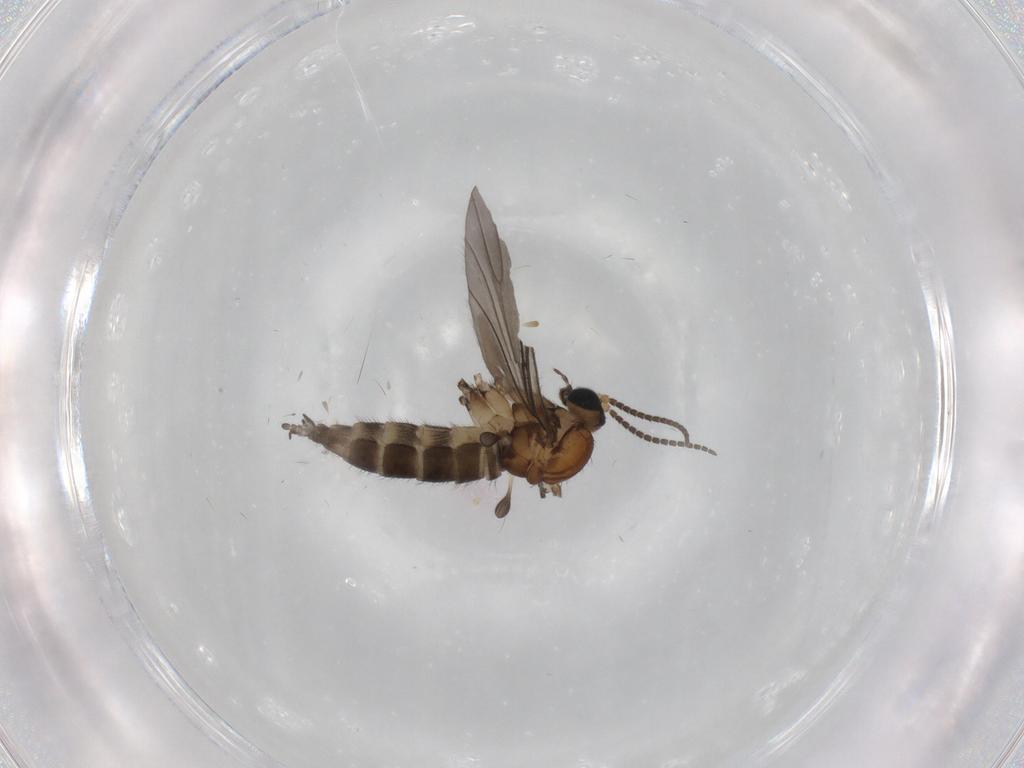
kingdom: Animalia
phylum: Arthropoda
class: Insecta
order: Diptera
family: Sciaridae
